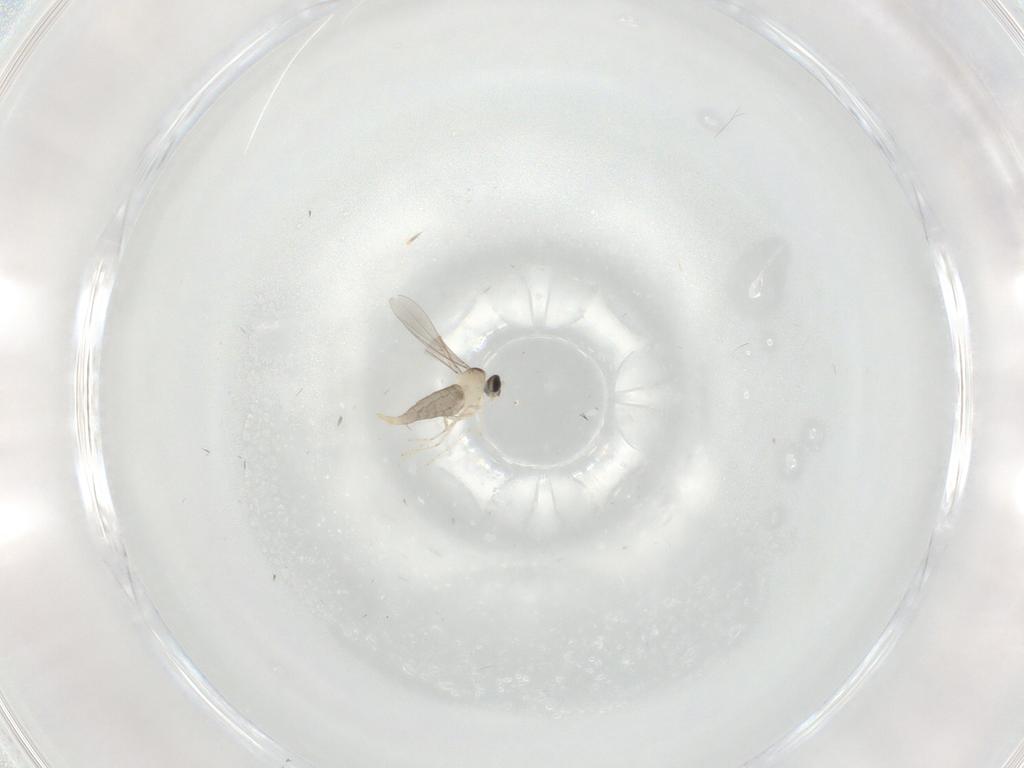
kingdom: Animalia
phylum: Arthropoda
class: Insecta
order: Diptera
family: Cecidomyiidae
